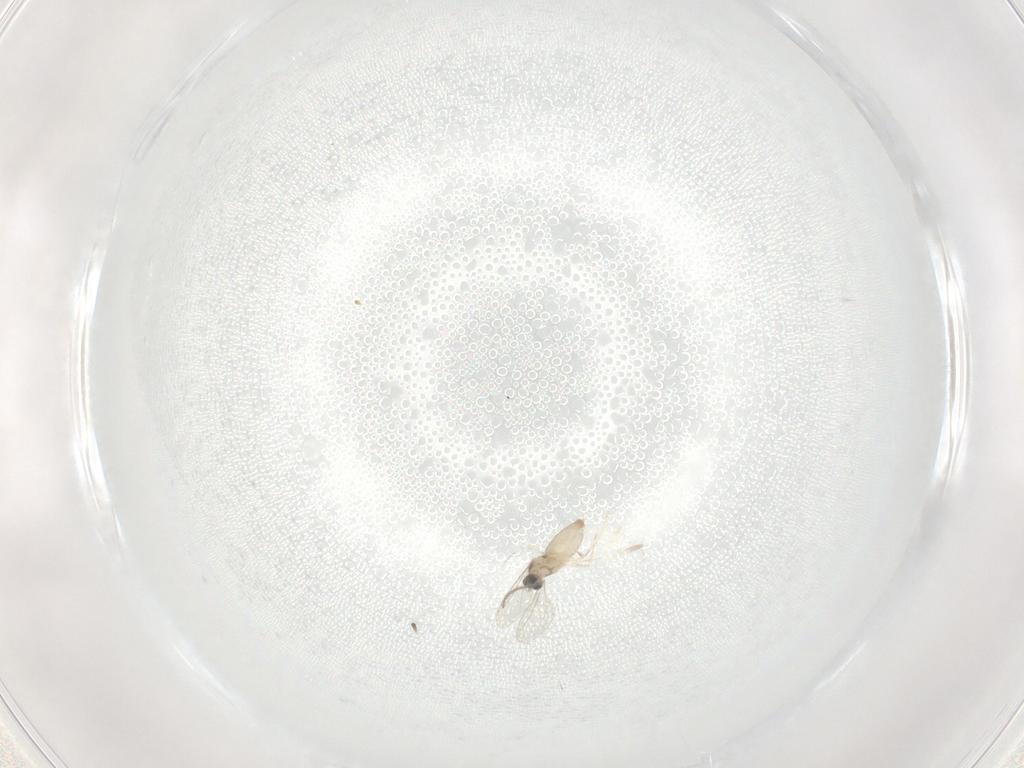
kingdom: Animalia
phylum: Arthropoda
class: Insecta
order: Diptera
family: Cecidomyiidae
